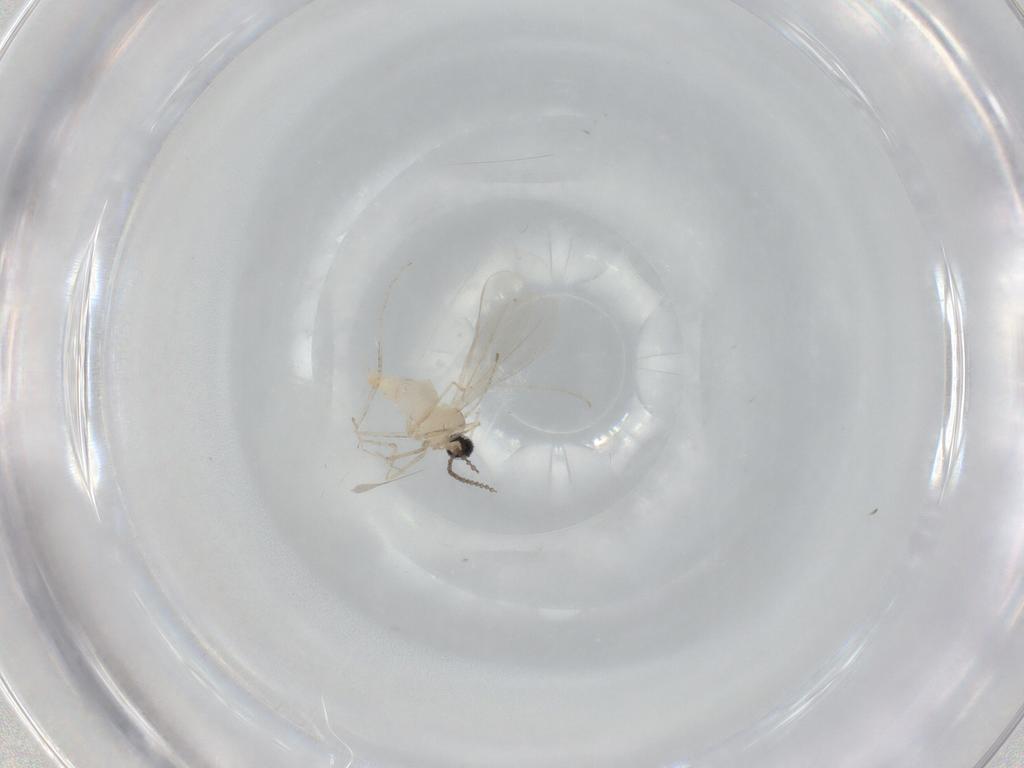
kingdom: Animalia
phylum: Arthropoda
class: Insecta
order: Diptera
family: Cecidomyiidae
